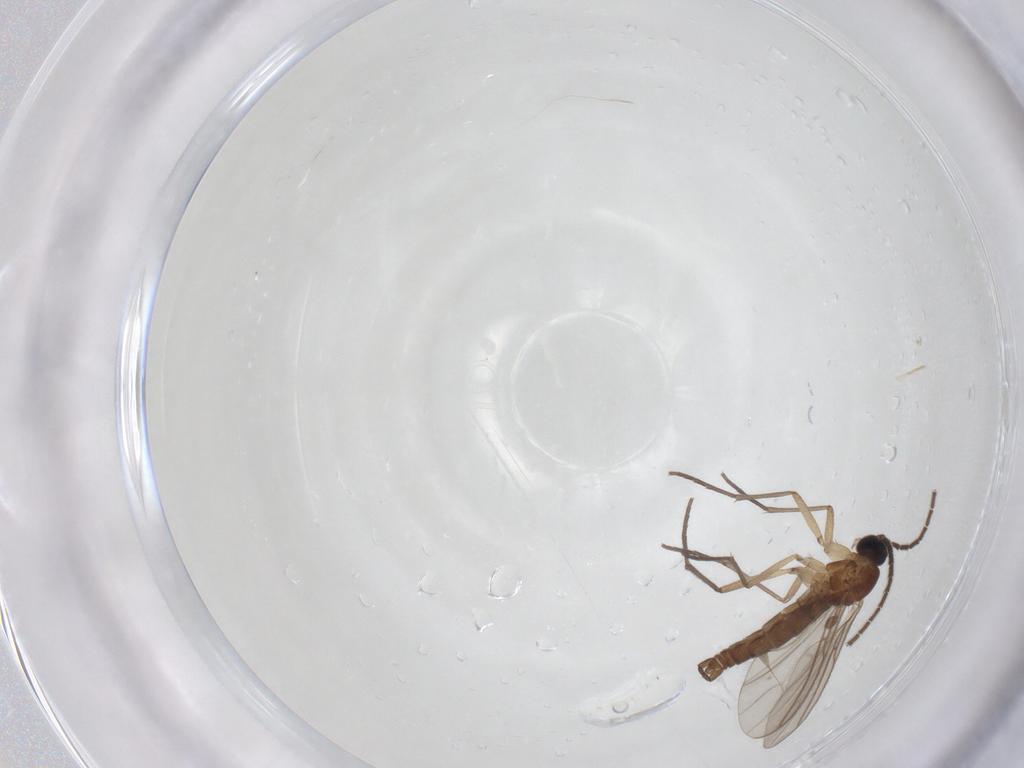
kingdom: Animalia
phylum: Arthropoda
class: Insecta
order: Diptera
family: Sciaridae
